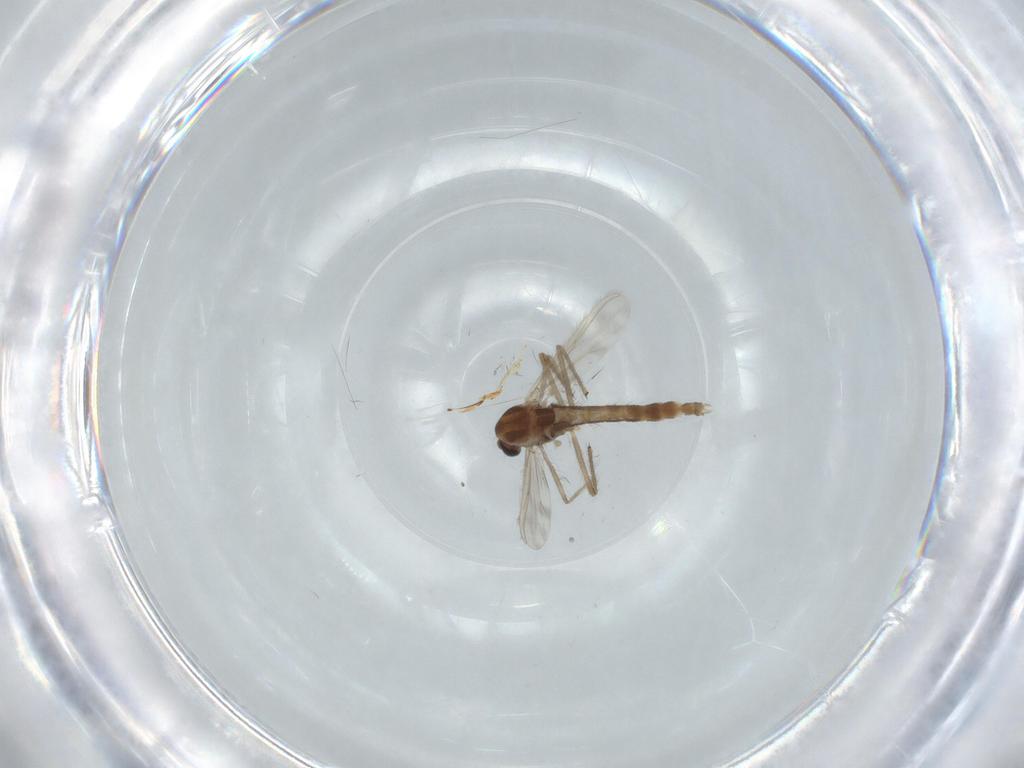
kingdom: Animalia
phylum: Arthropoda
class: Insecta
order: Diptera
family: Chironomidae
